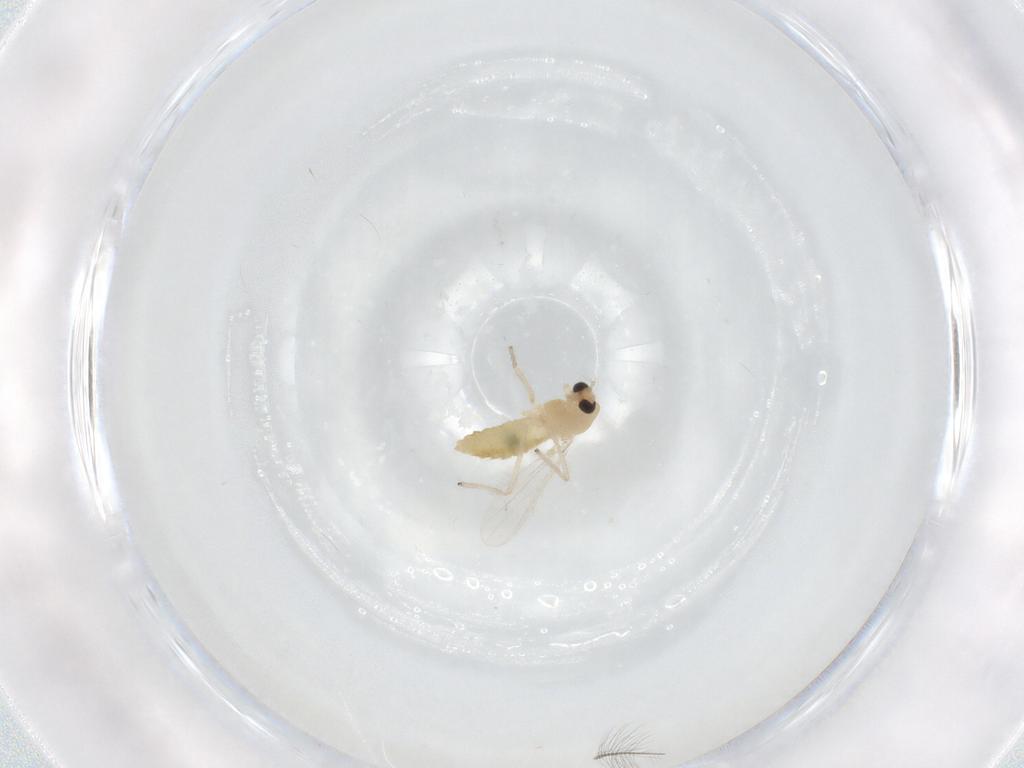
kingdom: Animalia
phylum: Arthropoda
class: Insecta
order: Diptera
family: Chironomidae
